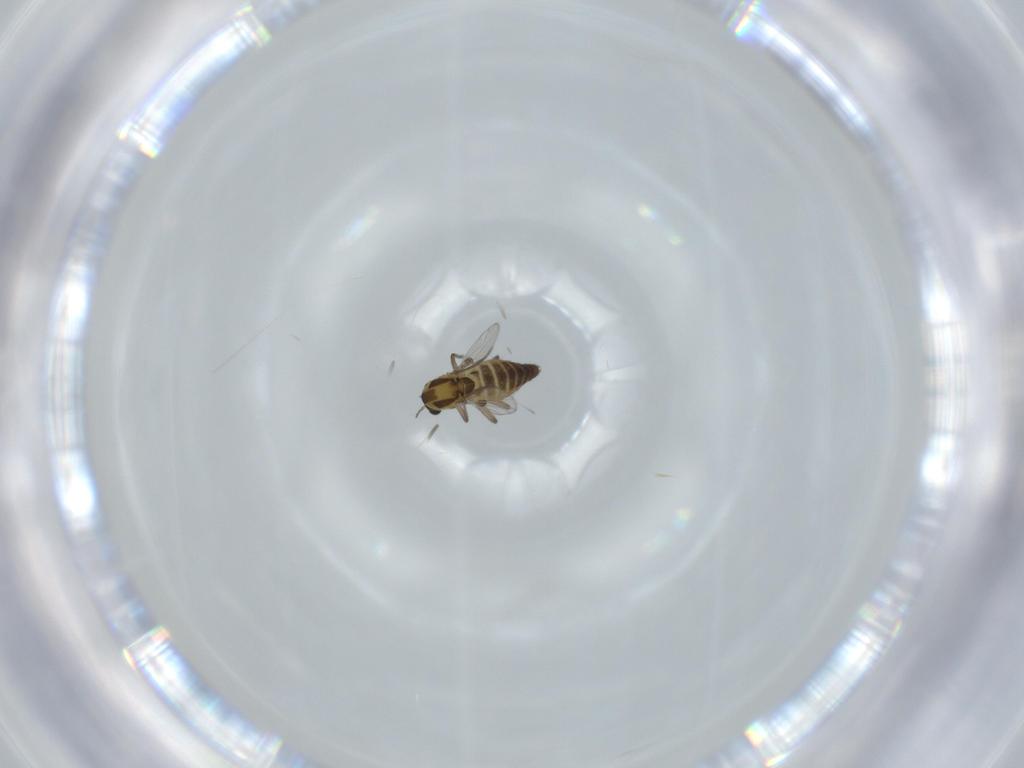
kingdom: Animalia
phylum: Arthropoda
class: Insecta
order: Diptera
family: Chironomidae
